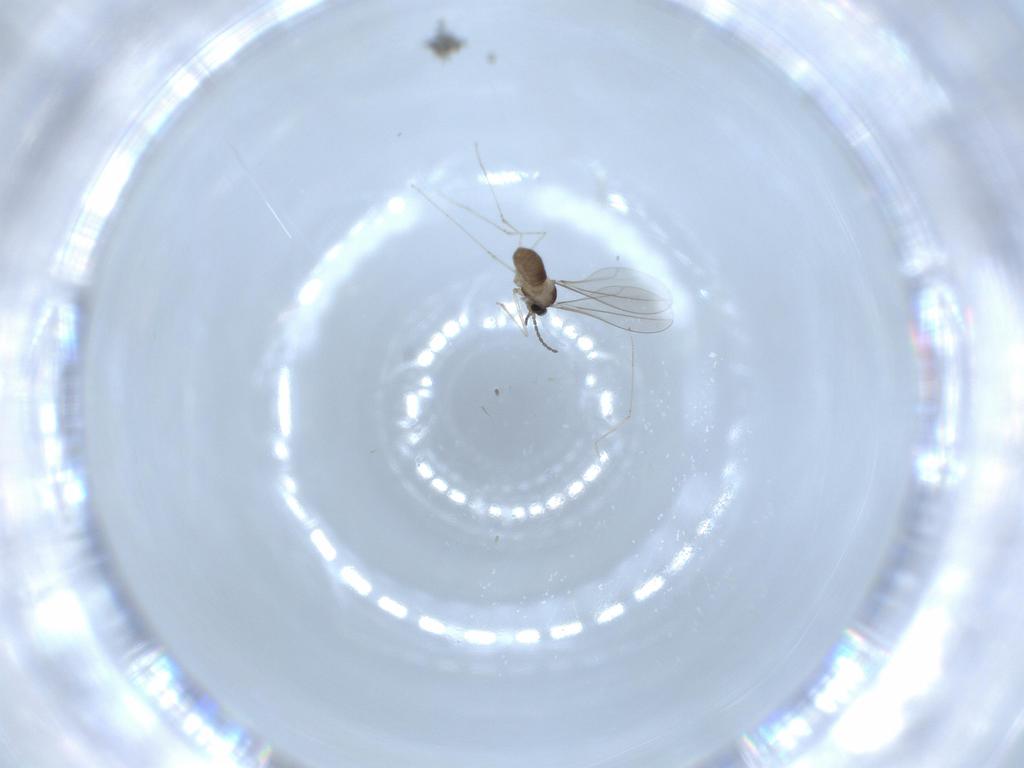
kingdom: Animalia
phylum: Arthropoda
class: Insecta
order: Diptera
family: Cecidomyiidae
